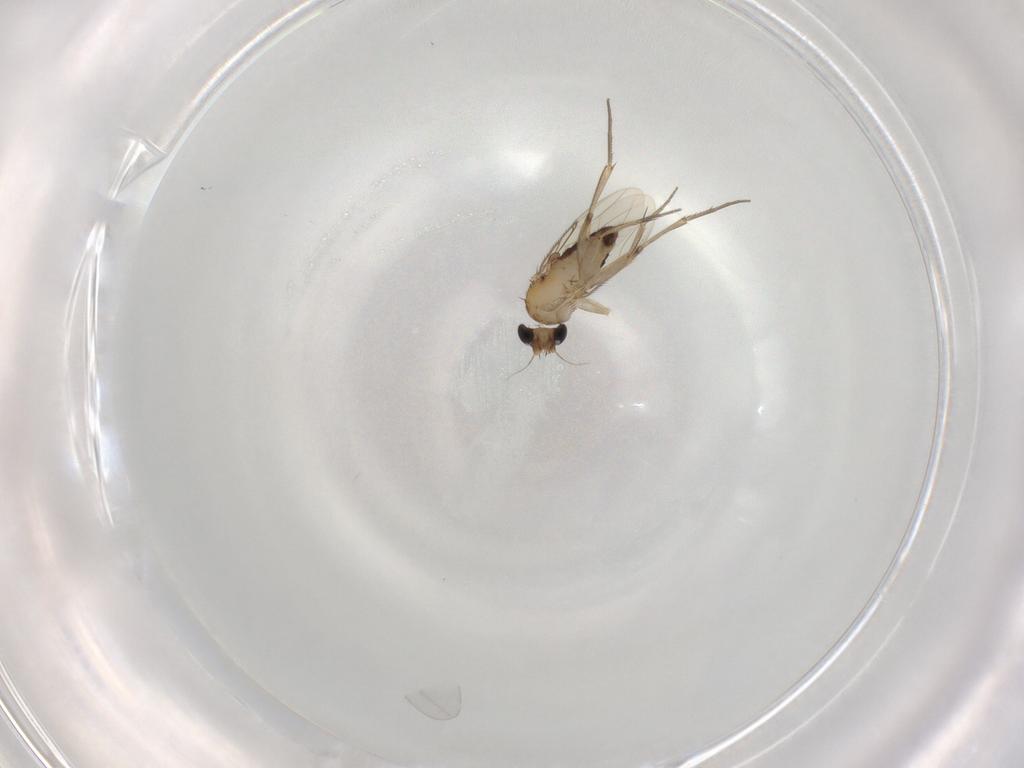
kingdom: Animalia
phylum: Arthropoda
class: Insecta
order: Diptera
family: Phoridae
